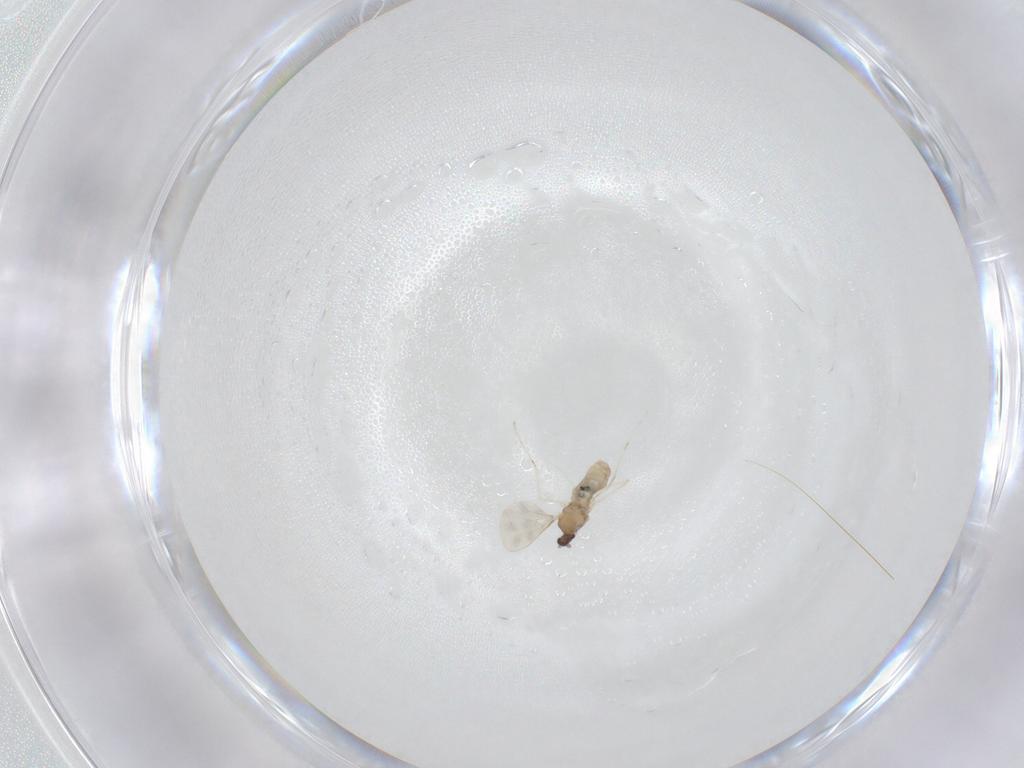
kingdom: Animalia
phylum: Arthropoda
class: Insecta
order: Diptera
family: Cecidomyiidae
